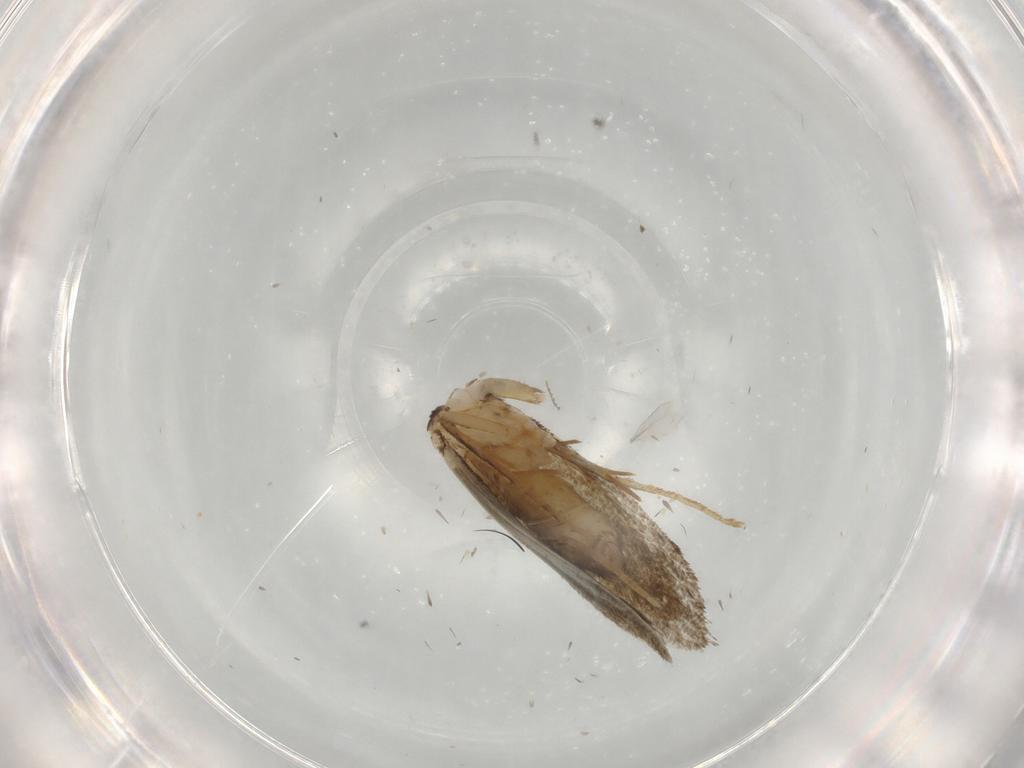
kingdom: Animalia
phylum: Arthropoda
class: Insecta
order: Lepidoptera
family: Tineidae
